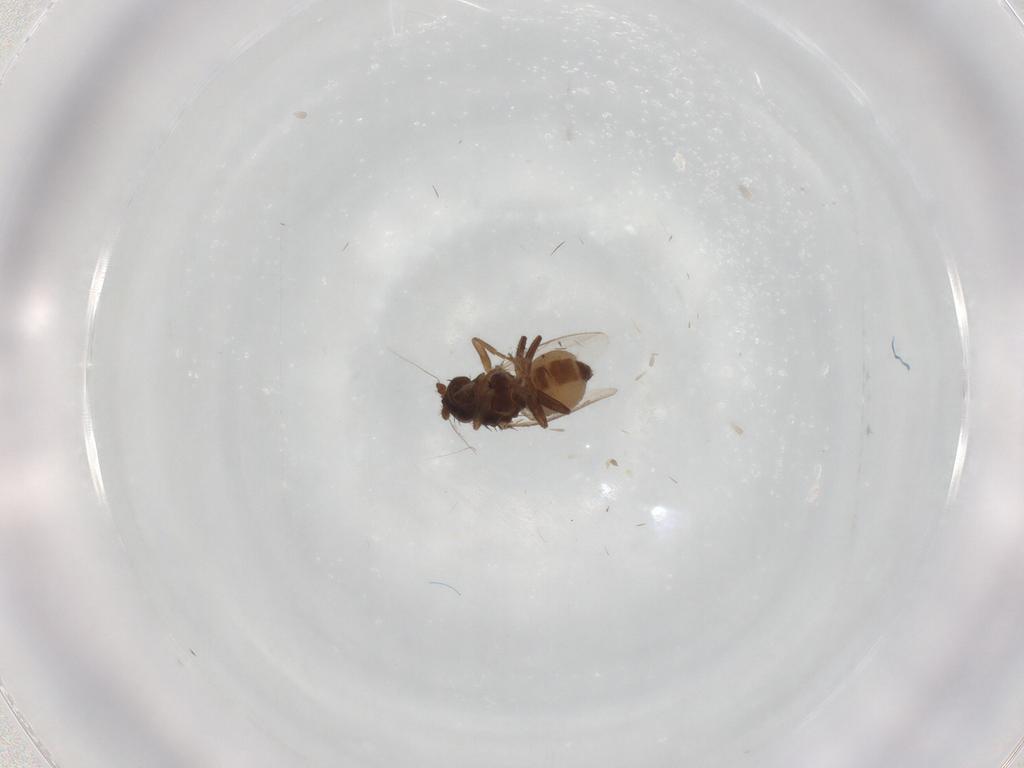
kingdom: Animalia
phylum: Arthropoda
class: Insecta
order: Diptera
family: Sphaeroceridae
